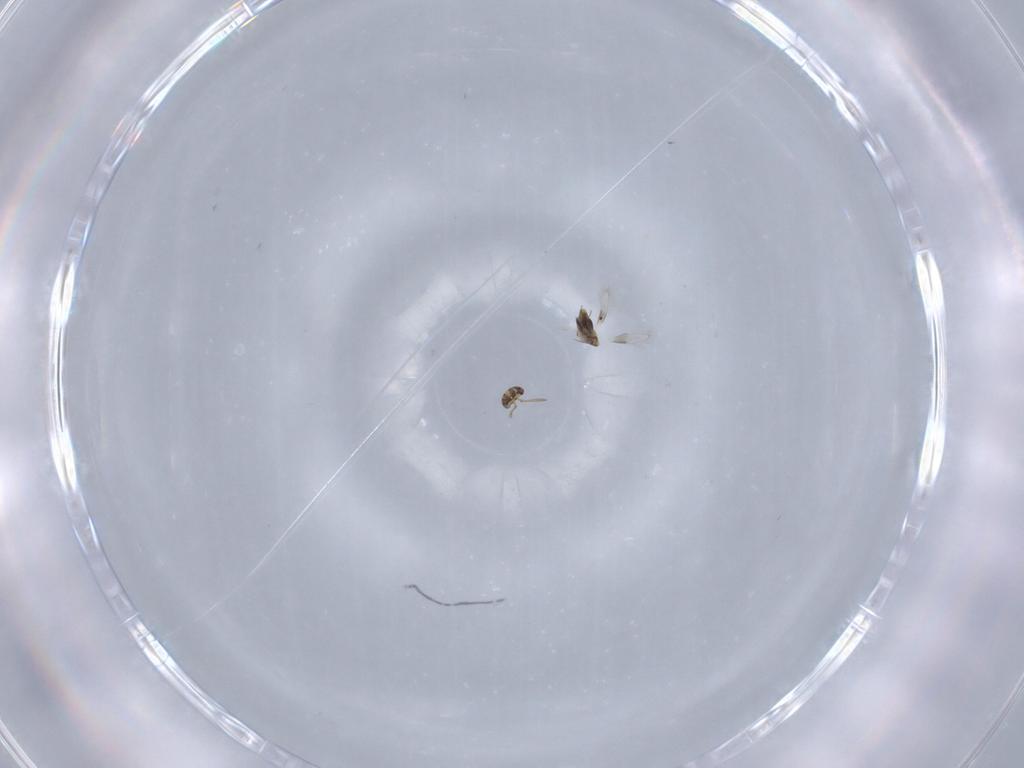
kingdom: Animalia
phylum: Arthropoda
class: Insecta
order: Hymenoptera
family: Aphelinidae
